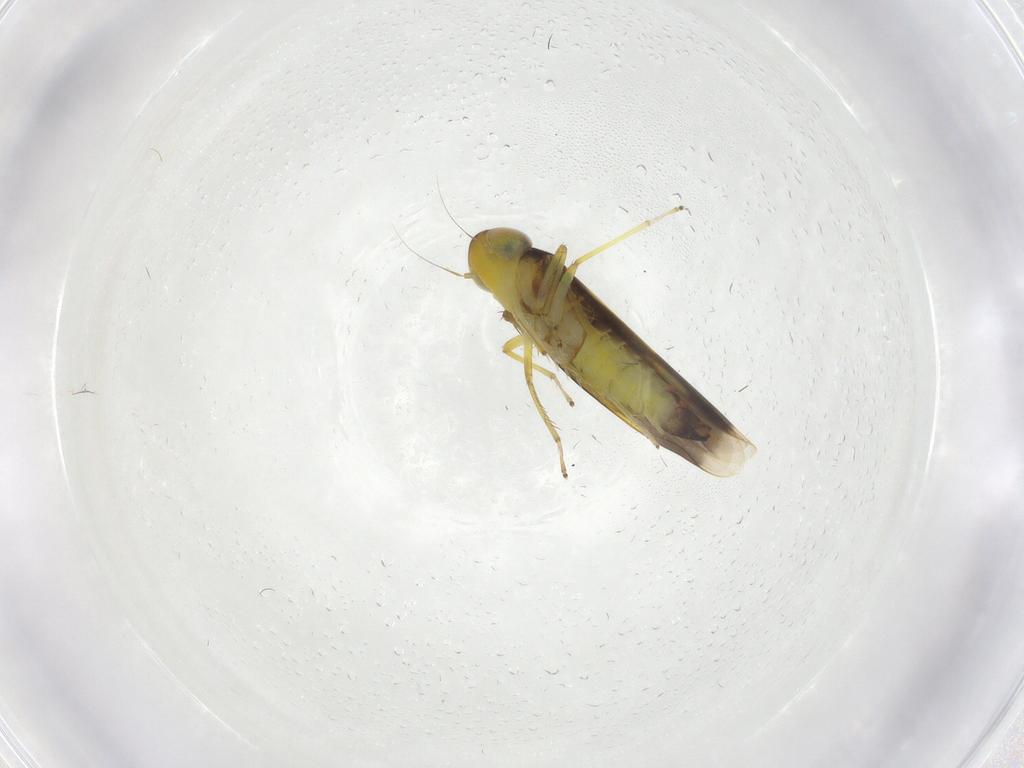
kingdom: Animalia
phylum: Arthropoda
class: Insecta
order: Hemiptera
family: Cicadellidae
